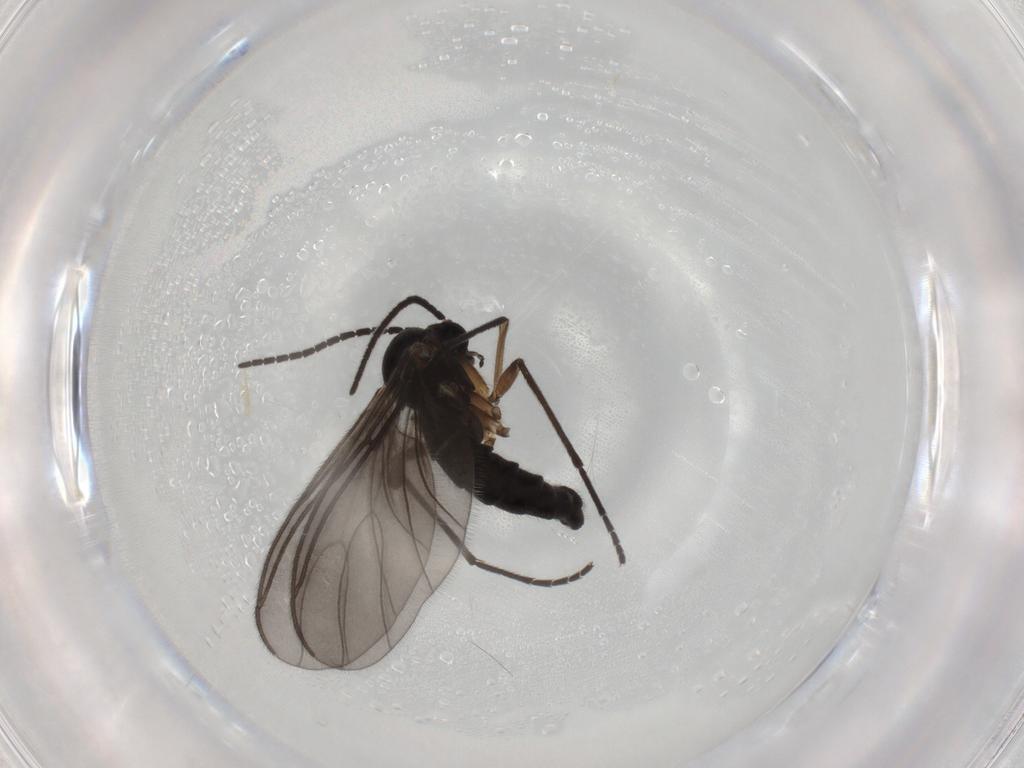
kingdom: Animalia
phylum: Arthropoda
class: Insecta
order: Diptera
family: Sciaridae
